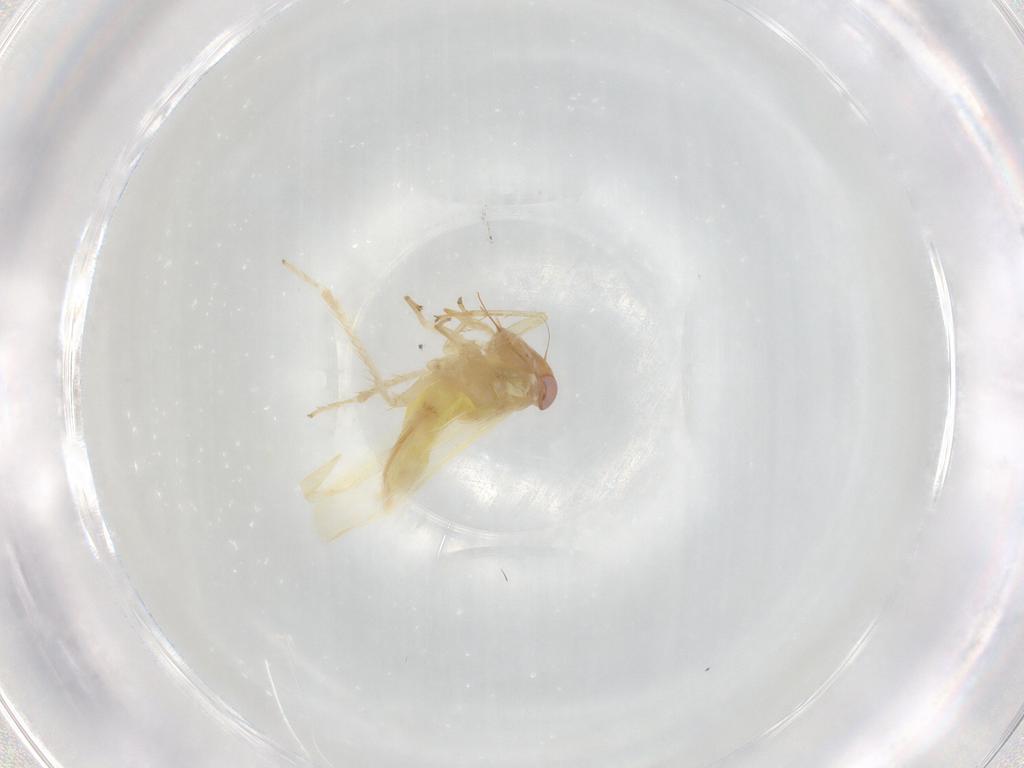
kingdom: Animalia
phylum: Arthropoda
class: Insecta
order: Hemiptera
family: Cicadellidae
